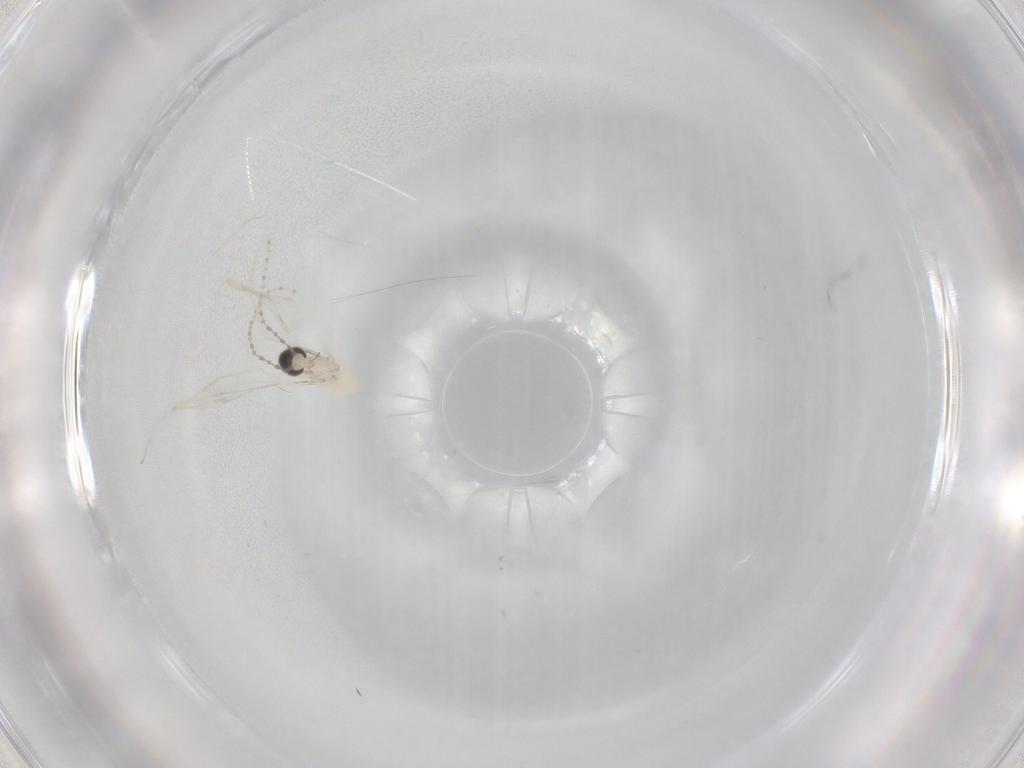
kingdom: Animalia
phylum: Arthropoda
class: Insecta
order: Diptera
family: Cecidomyiidae
